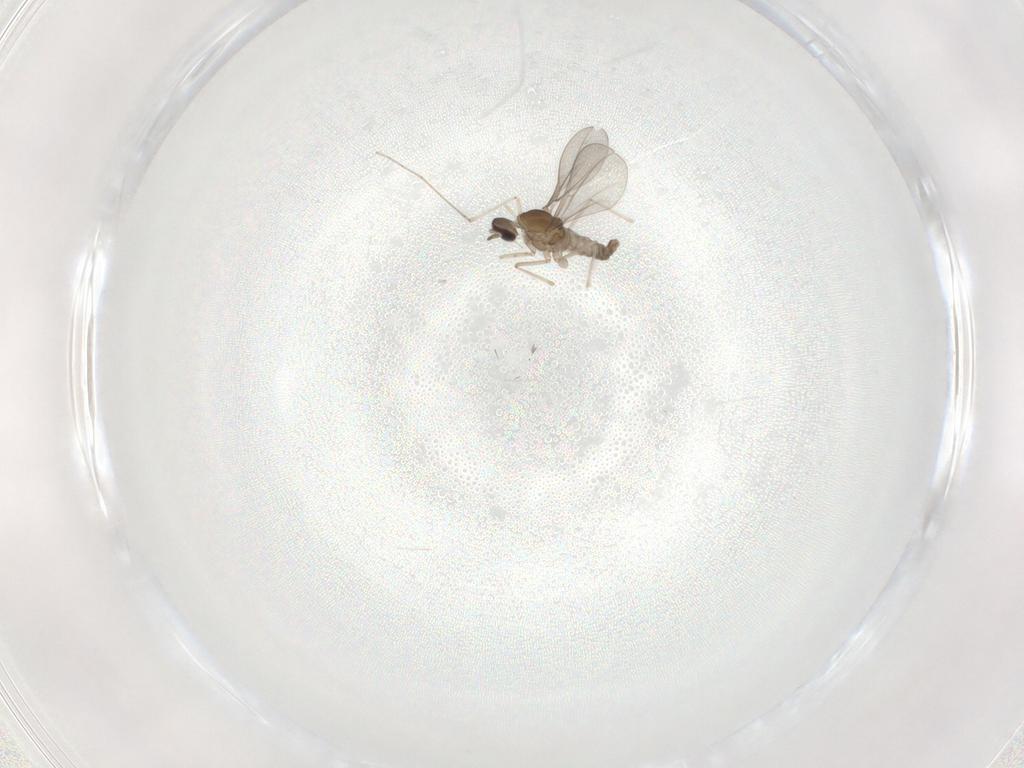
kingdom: Animalia
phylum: Arthropoda
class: Insecta
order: Diptera
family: Cecidomyiidae
